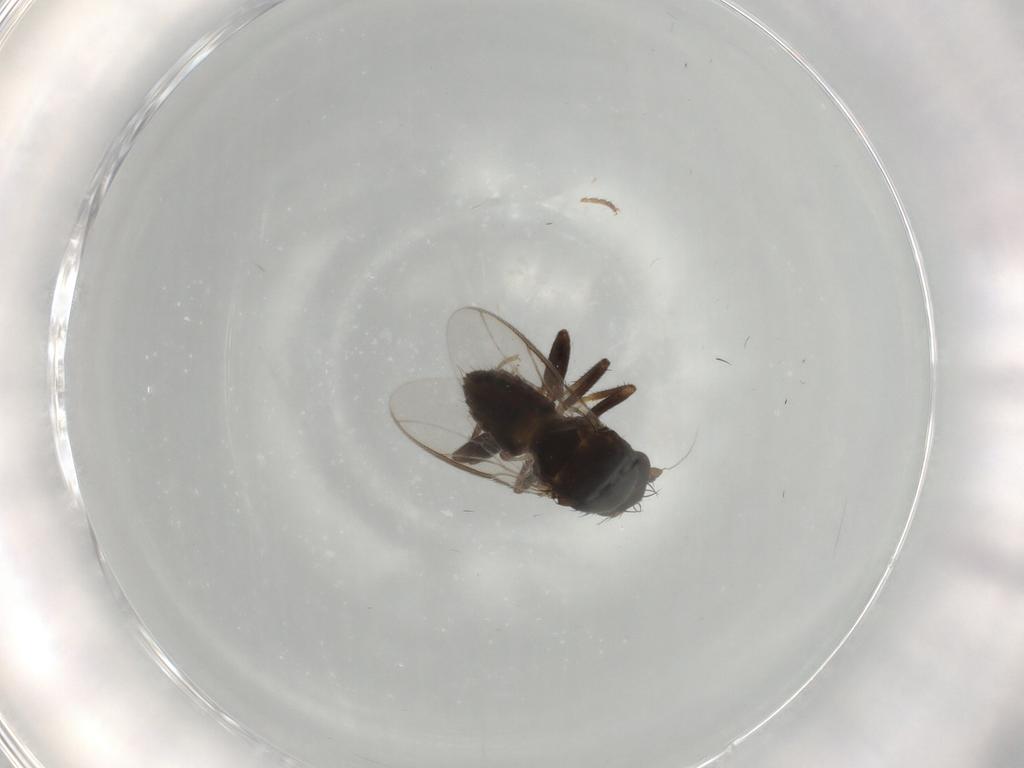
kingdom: Animalia
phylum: Arthropoda
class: Insecta
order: Diptera
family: Sphaeroceridae
